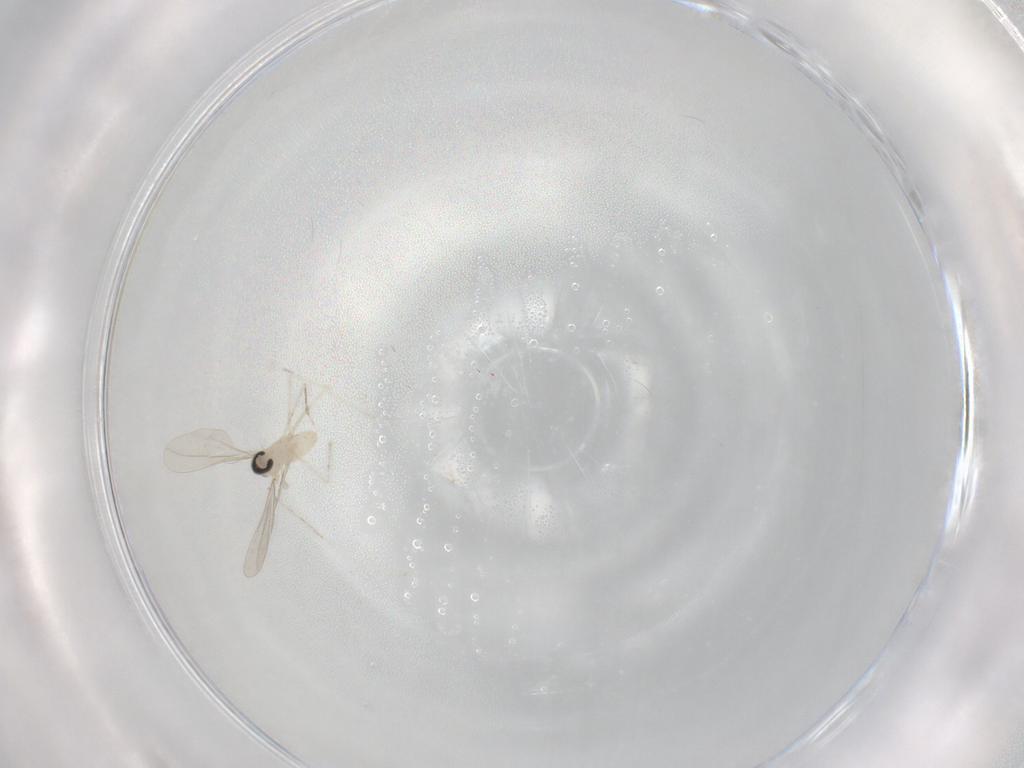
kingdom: Animalia
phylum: Arthropoda
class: Insecta
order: Diptera
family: Cecidomyiidae
